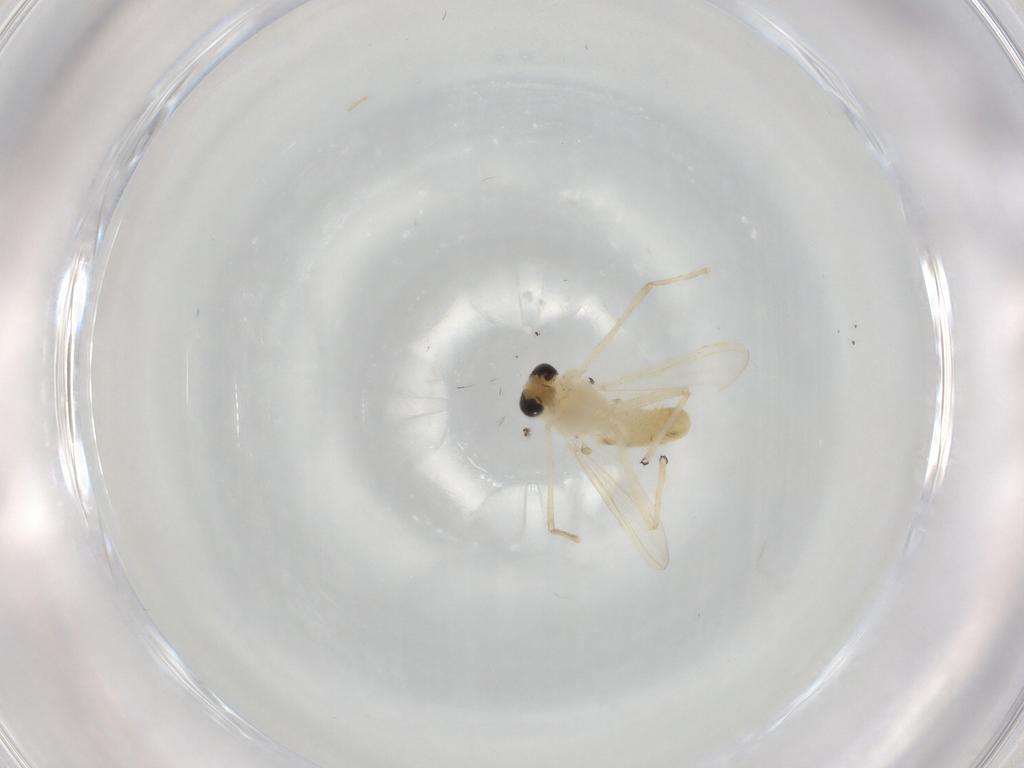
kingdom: Animalia
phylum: Arthropoda
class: Insecta
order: Diptera
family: Chironomidae
